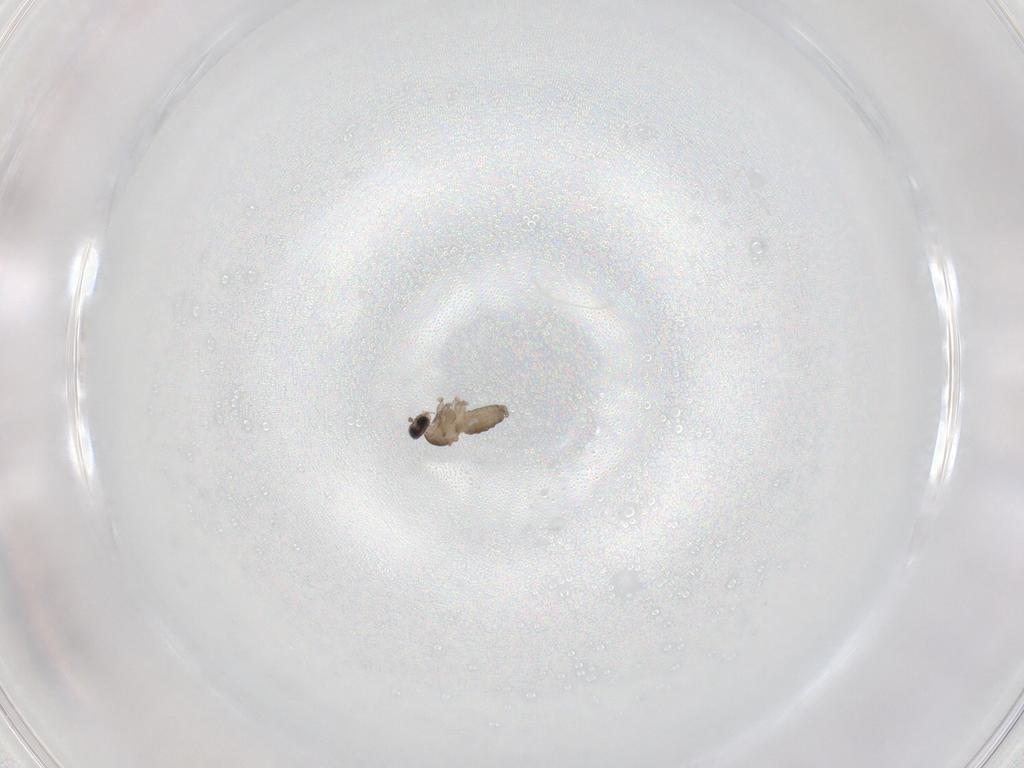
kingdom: Animalia
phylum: Arthropoda
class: Insecta
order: Diptera
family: Cecidomyiidae
